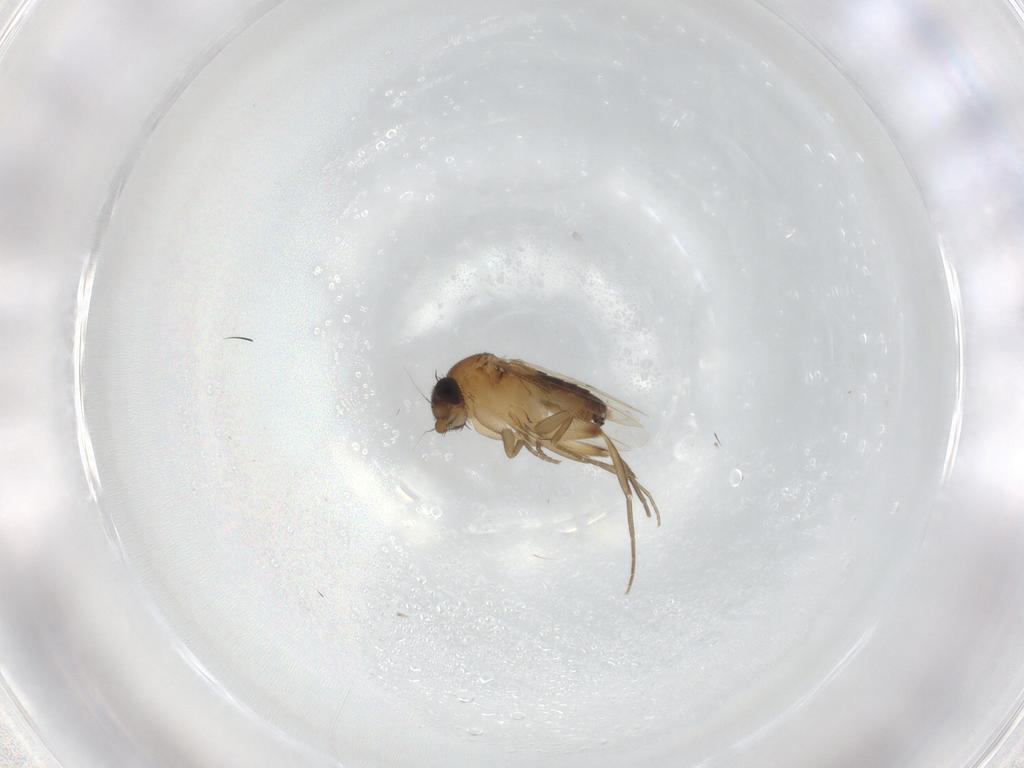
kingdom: Animalia
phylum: Arthropoda
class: Insecta
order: Diptera
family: Phoridae
